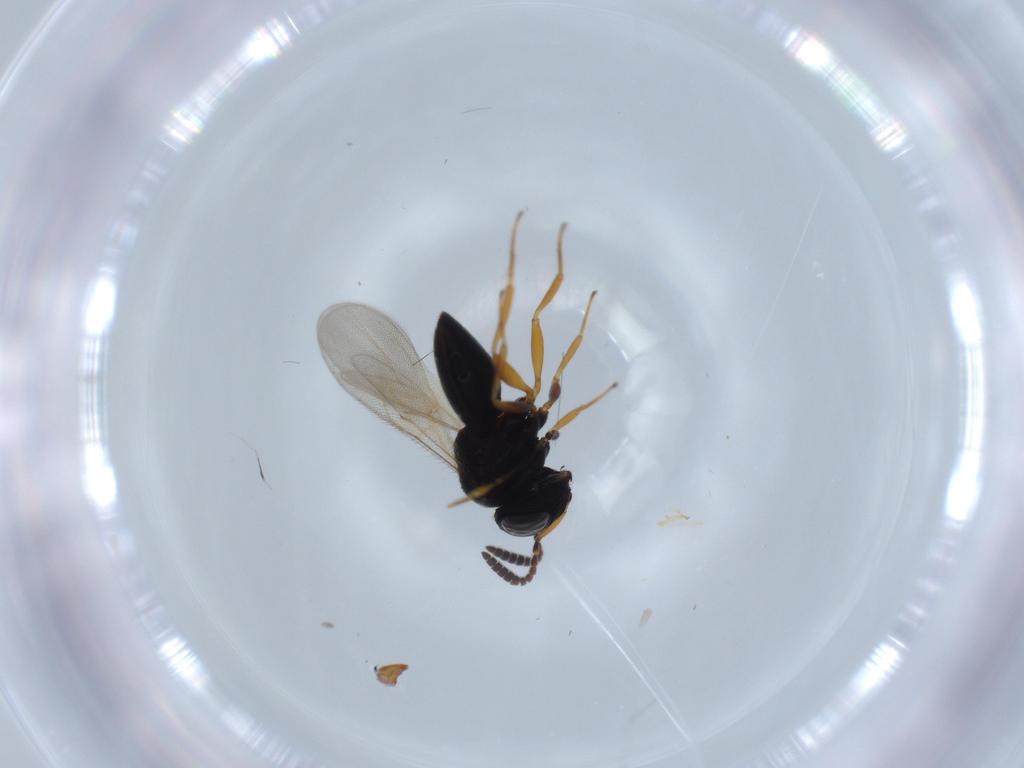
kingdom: Animalia
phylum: Arthropoda
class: Insecta
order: Hymenoptera
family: Scelionidae
